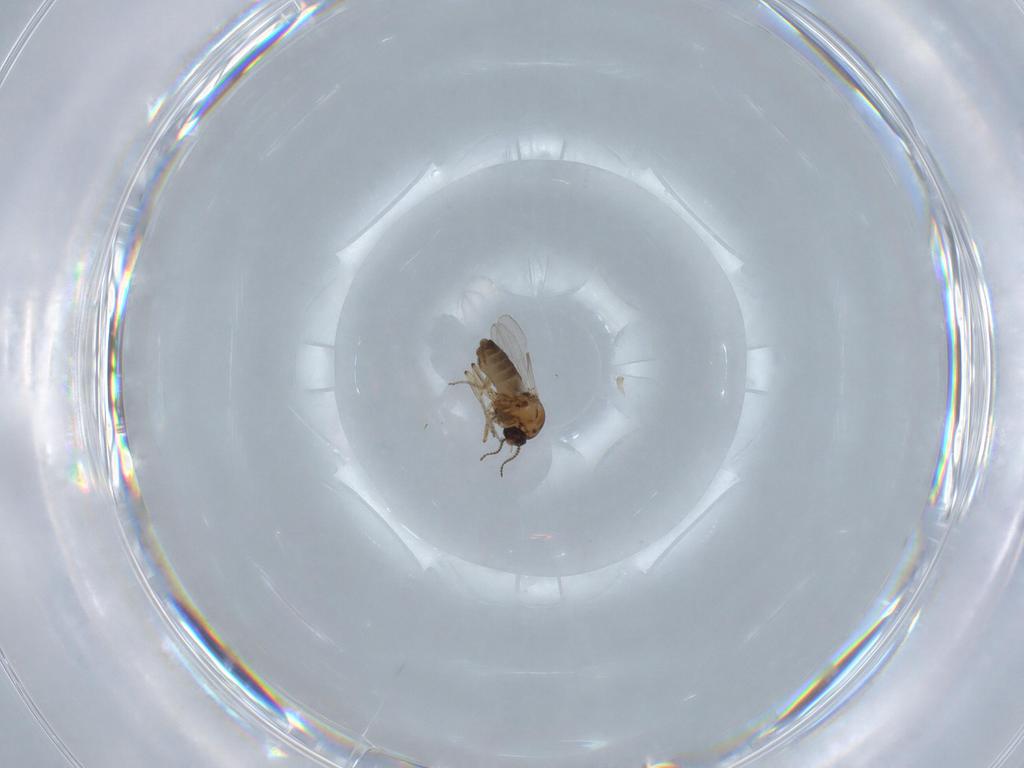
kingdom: Animalia
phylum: Arthropoda
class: Insecta
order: Diptera
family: Ceratopogonidae
